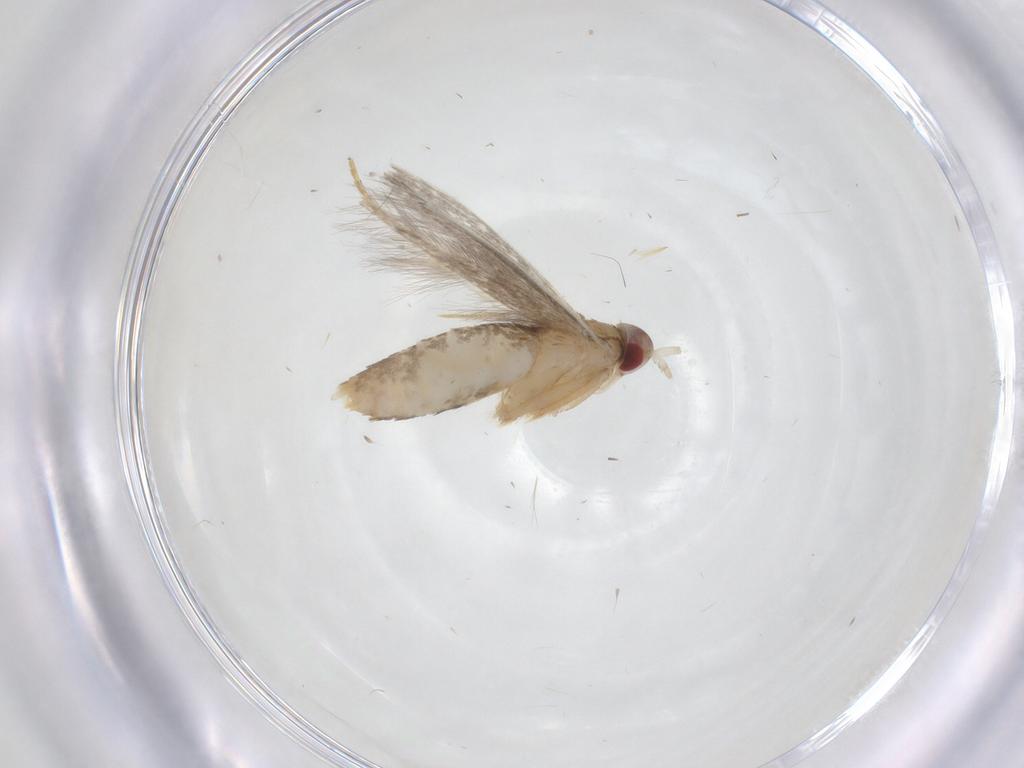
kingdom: Animalia
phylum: Arthropoda
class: Insecta
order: Lepidoptera
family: Cosmopterigidae
